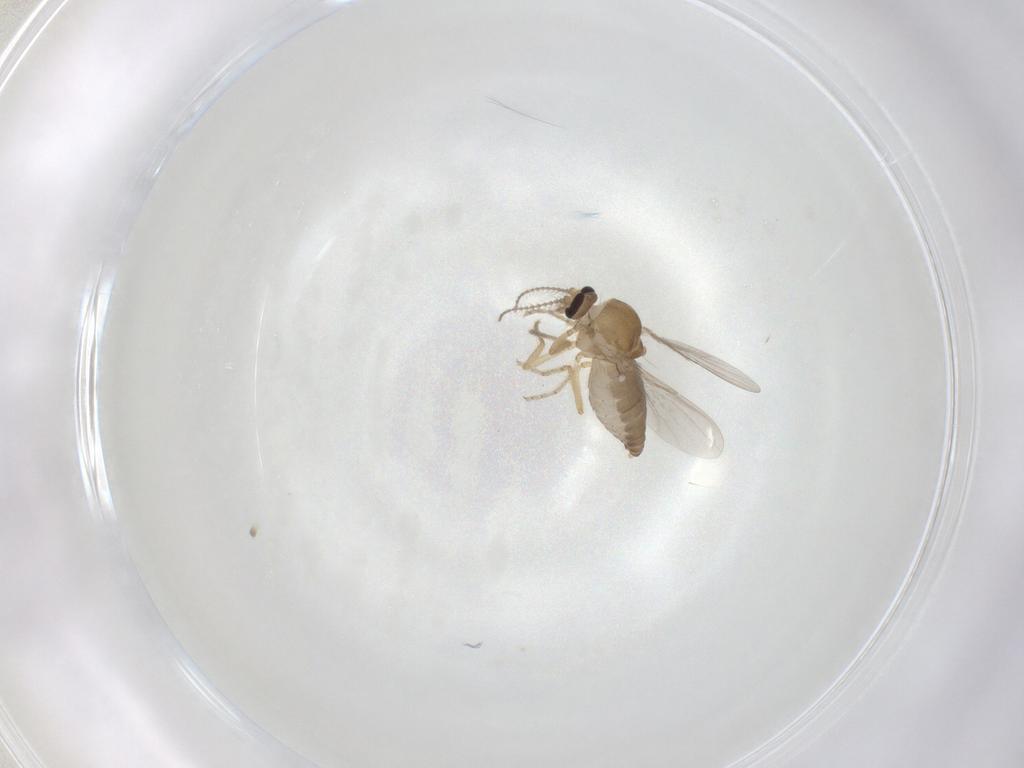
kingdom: Animalia
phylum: Arthropoda
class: Insecta
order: Diptera
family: Ceratopogonidae
